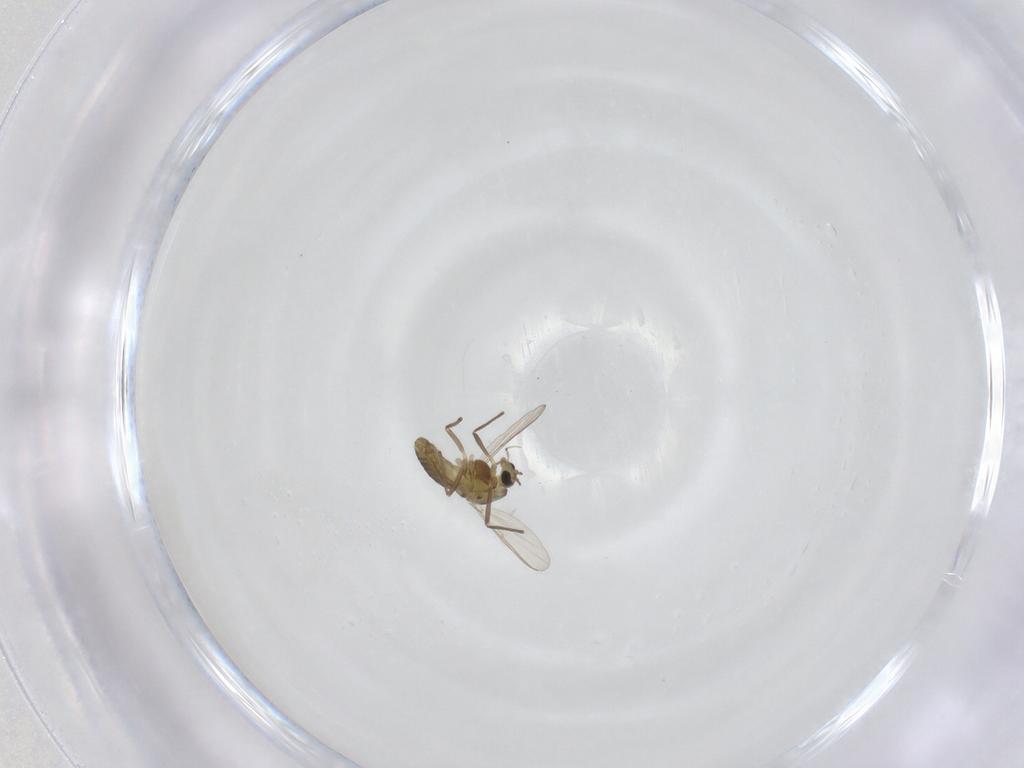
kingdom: Animalia
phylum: Arthropoda
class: Insecta
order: Diptera
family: Chironomidae
